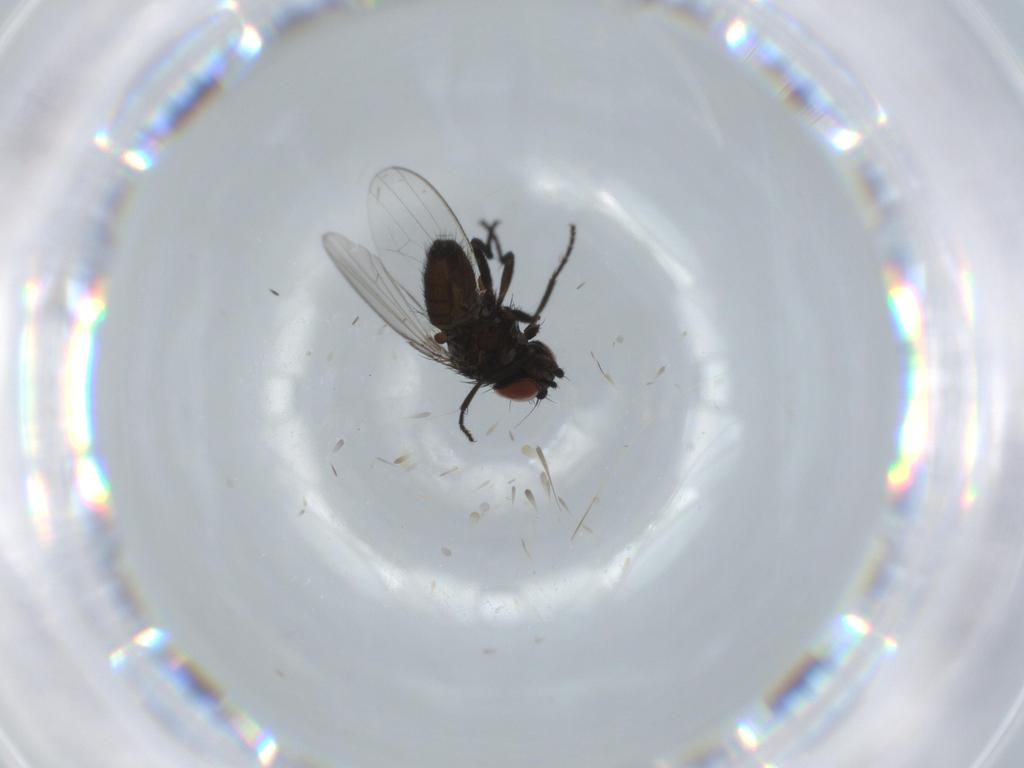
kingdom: Animalia
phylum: Arthropoda
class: Insecta
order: Diptera
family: Milichiidae
